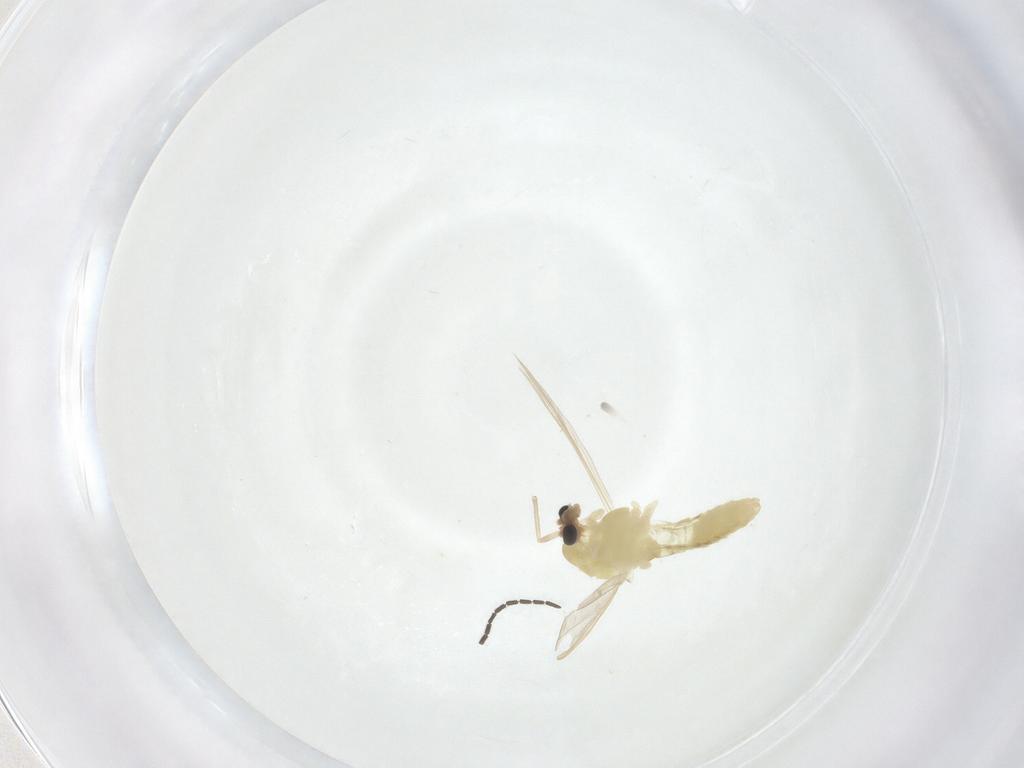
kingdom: Animalia
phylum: Arthropoda
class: Insecta
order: Diptera
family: Chironomidae
